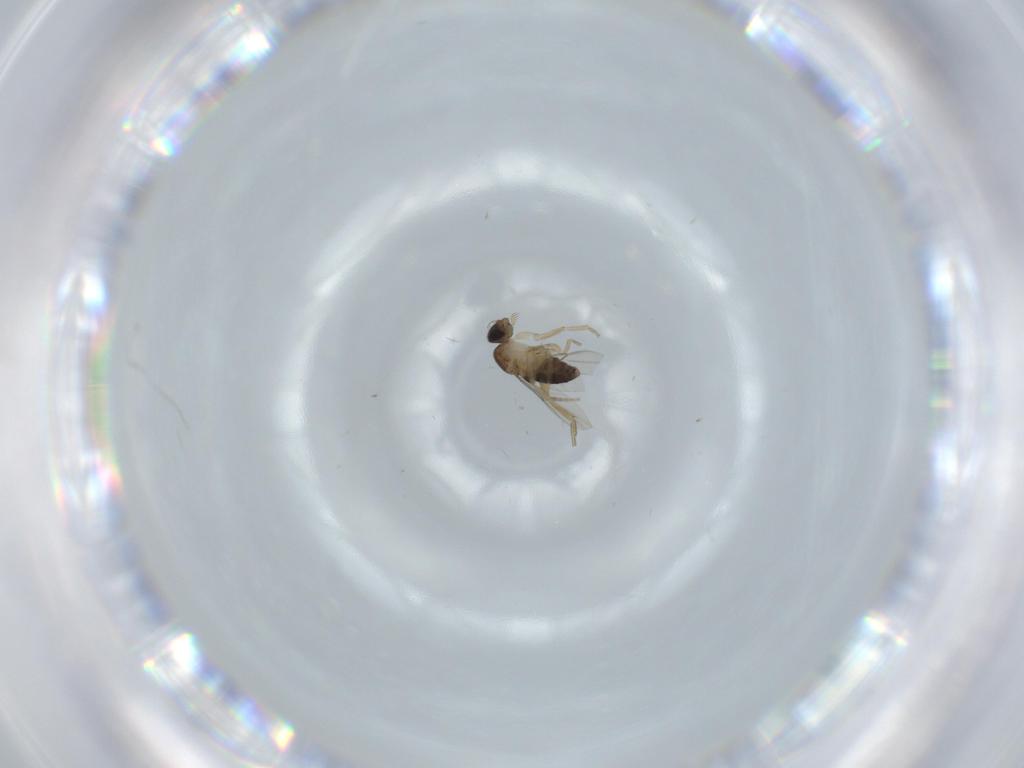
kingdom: Animalia
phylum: Arthropoda
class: Insecta
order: Diptera
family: Phoridae
